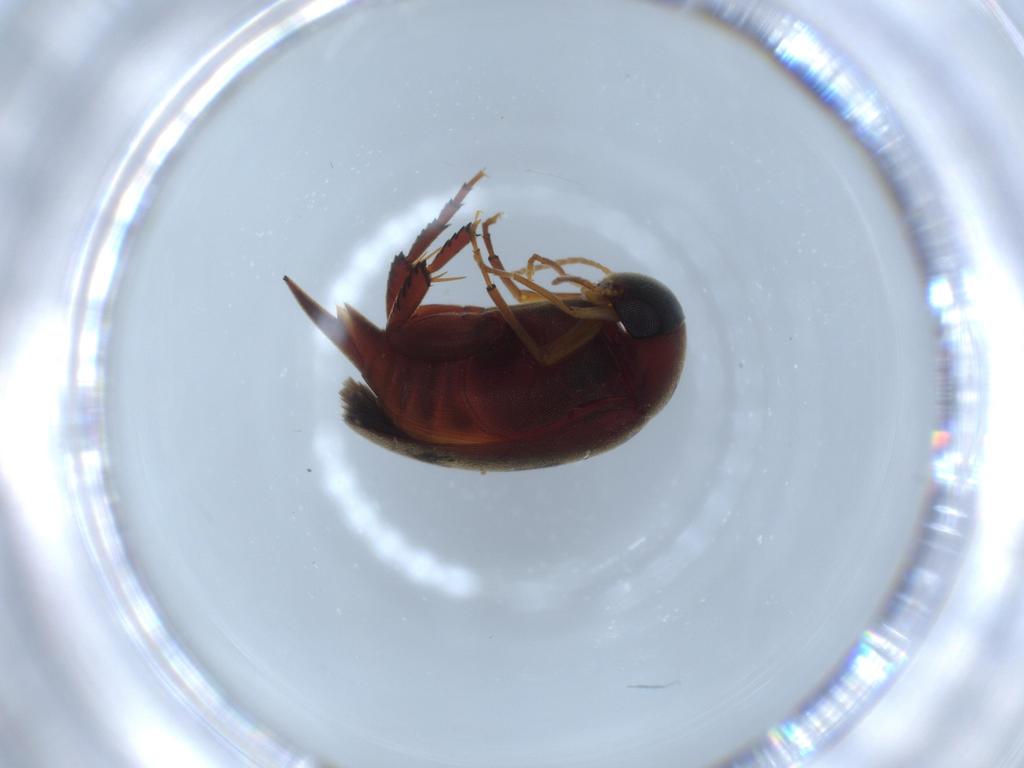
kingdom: Animalia
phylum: Arthropoda
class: Insecta
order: Coleoptera
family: Mordellidae
